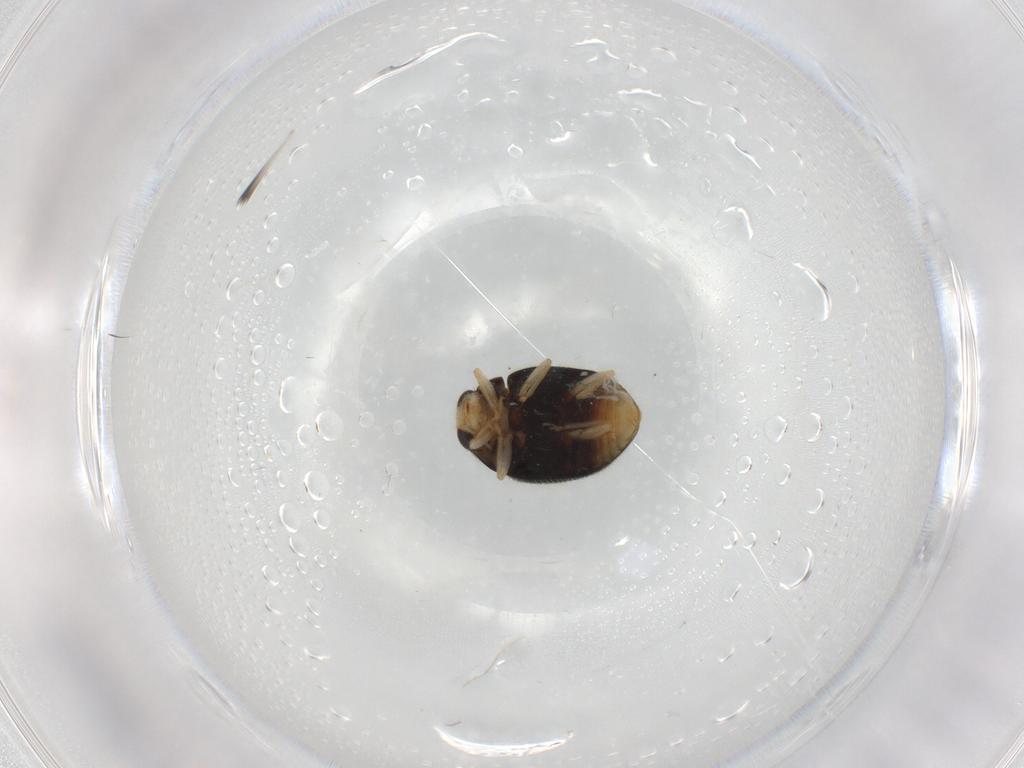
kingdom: Animalia
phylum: Arthropoda
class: Insecta
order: Coleoptera
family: Coccinellidae
